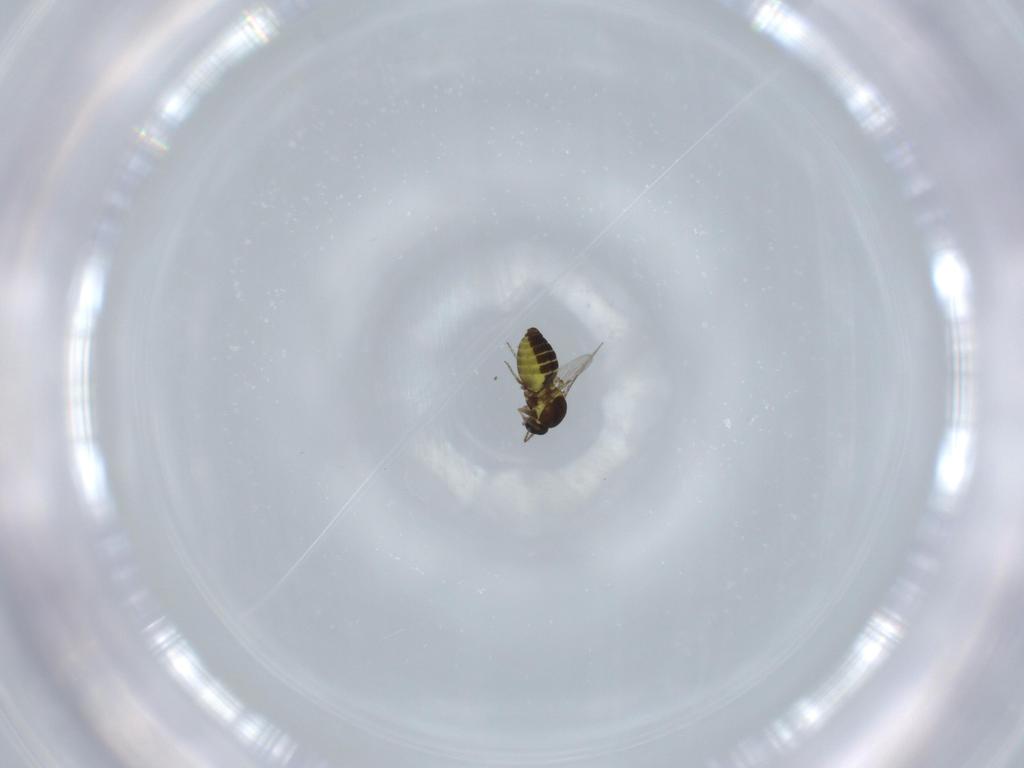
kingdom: Animalia
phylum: Arthropoda
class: Insecta
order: Diptera
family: Ceratopogonidae
